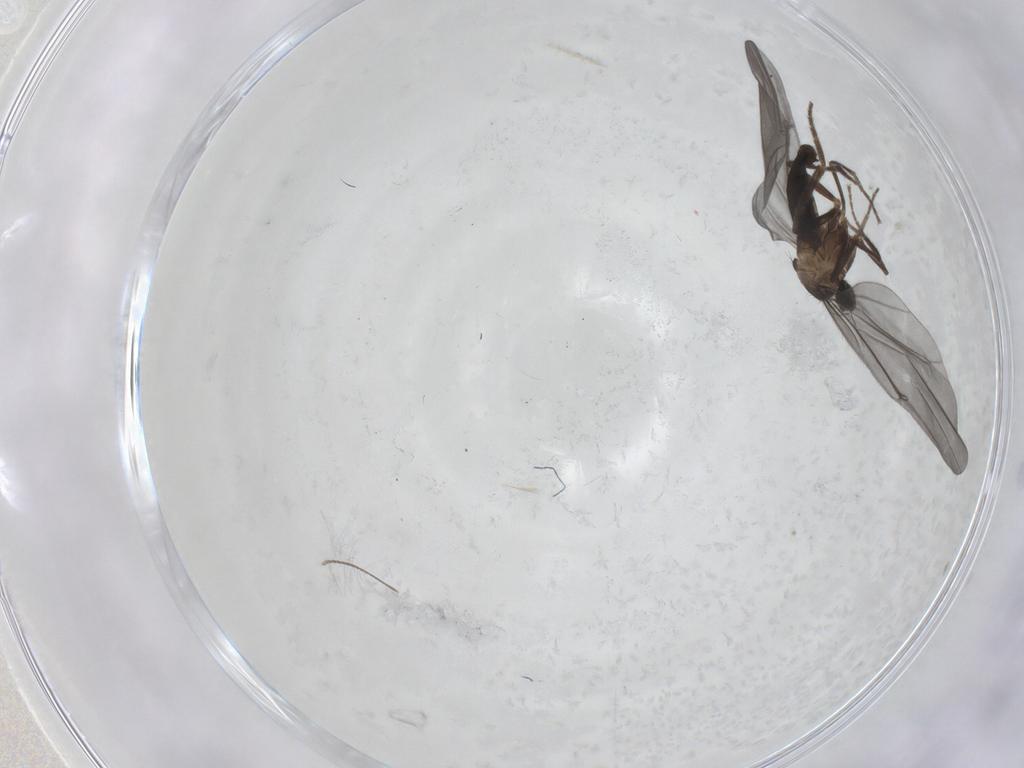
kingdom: Animalia
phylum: Arthropoda
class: Insecta
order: Diptera
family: Phoridae
